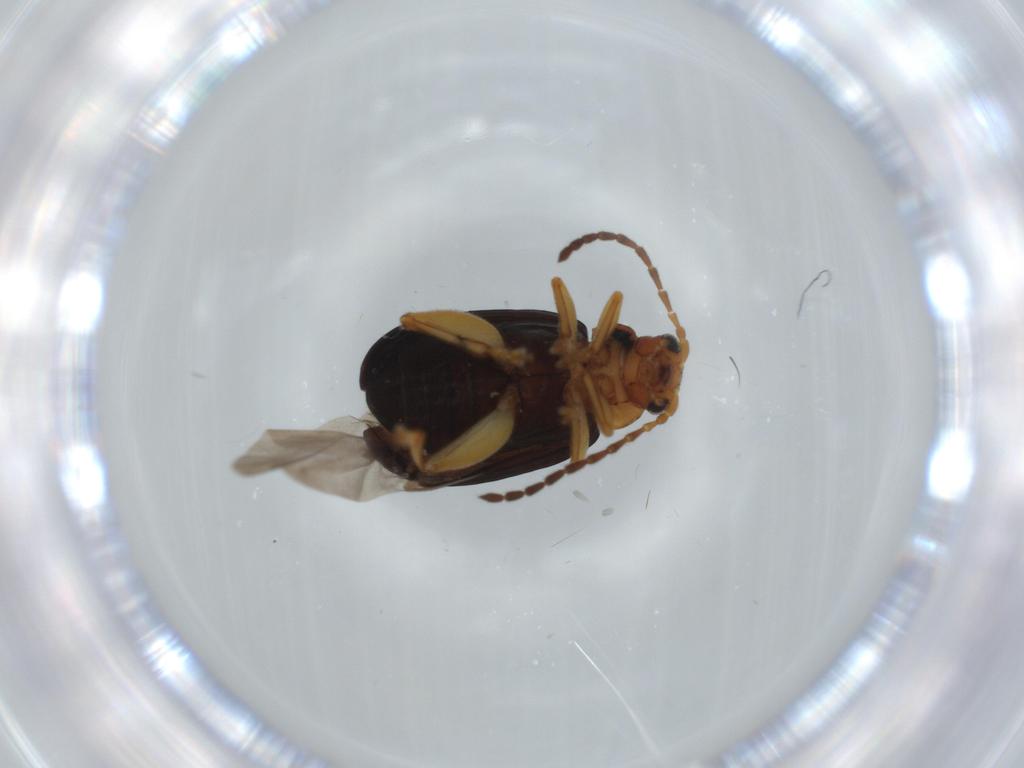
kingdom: Animalia
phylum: Arthropoda
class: Insecta
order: Coleoptera
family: Chrysomelidae
